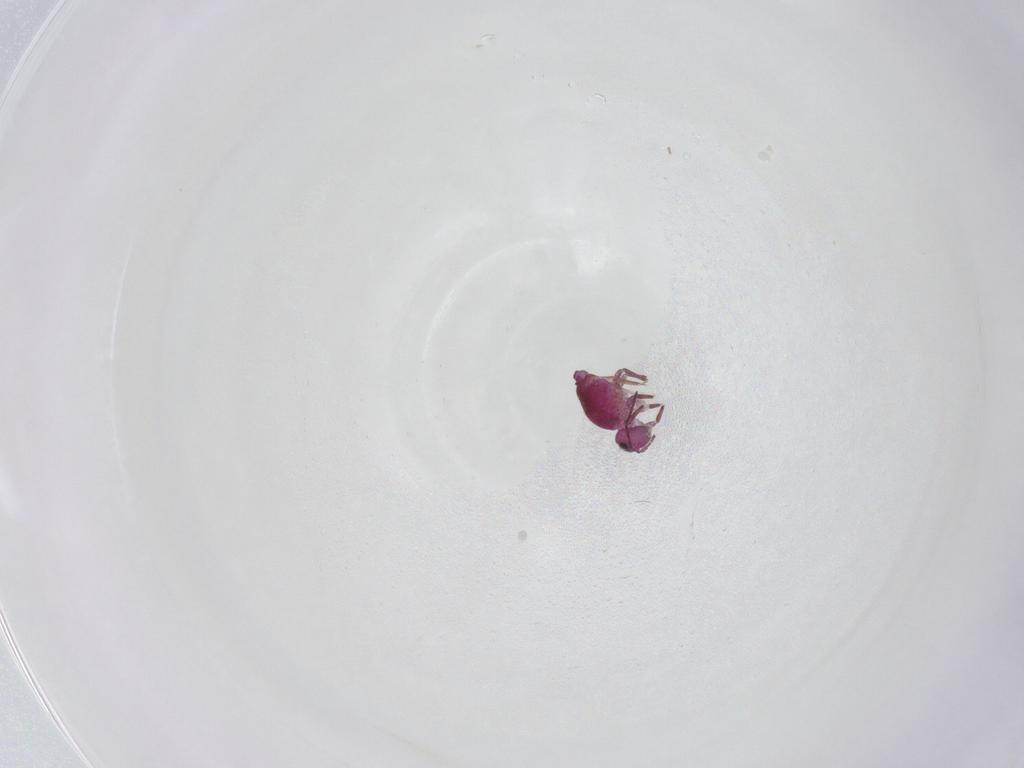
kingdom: Animalia
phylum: Arthropoda
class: Collembola
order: Symphypleona
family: Sminthuridae
